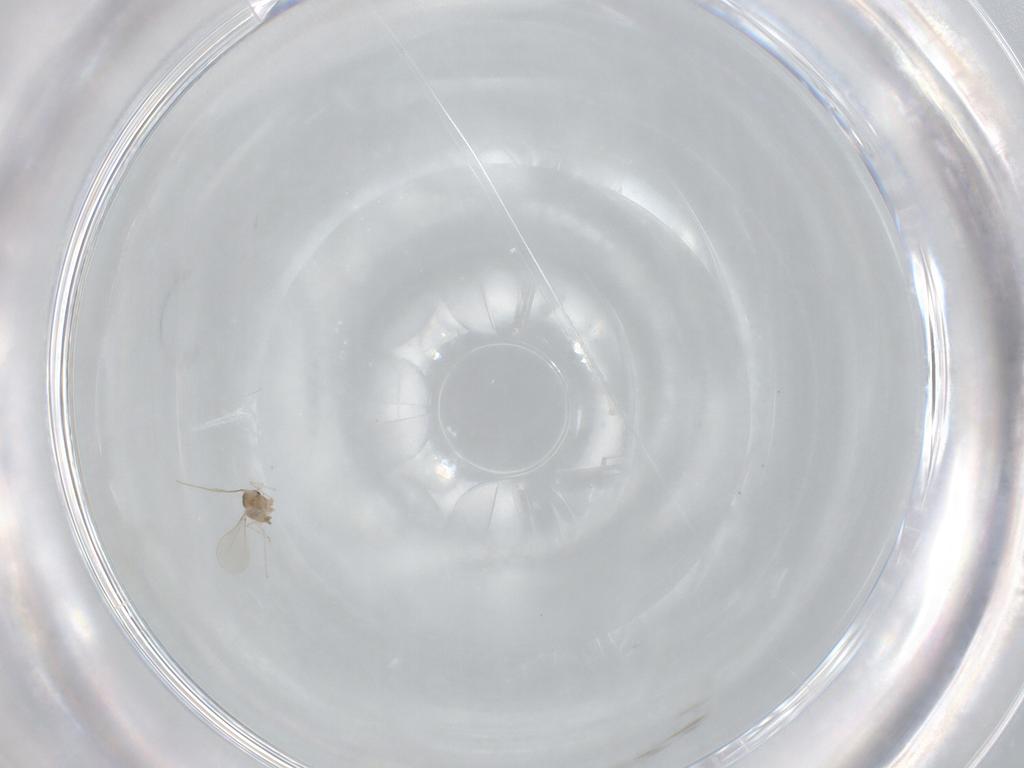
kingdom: Animalia
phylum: Arthropoda
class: Insecta
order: Diptera
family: Cecidomyiidae
